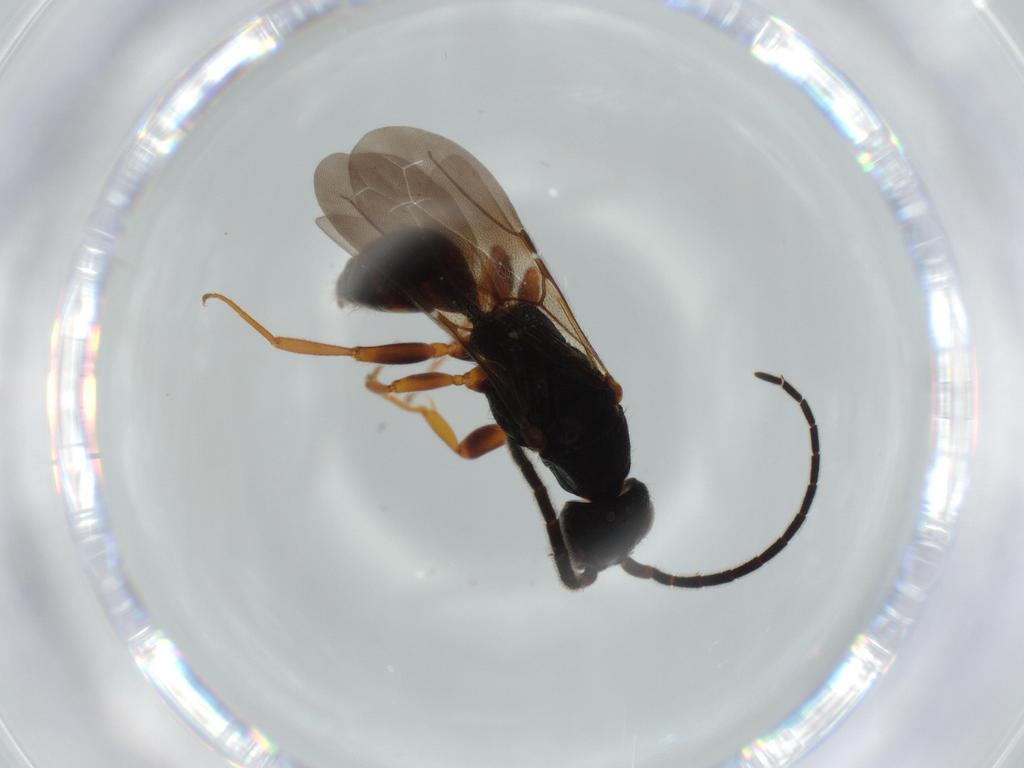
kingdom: Animalia
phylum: Arthropoda
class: Insecta
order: Hymenoptera
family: Bethylidae
